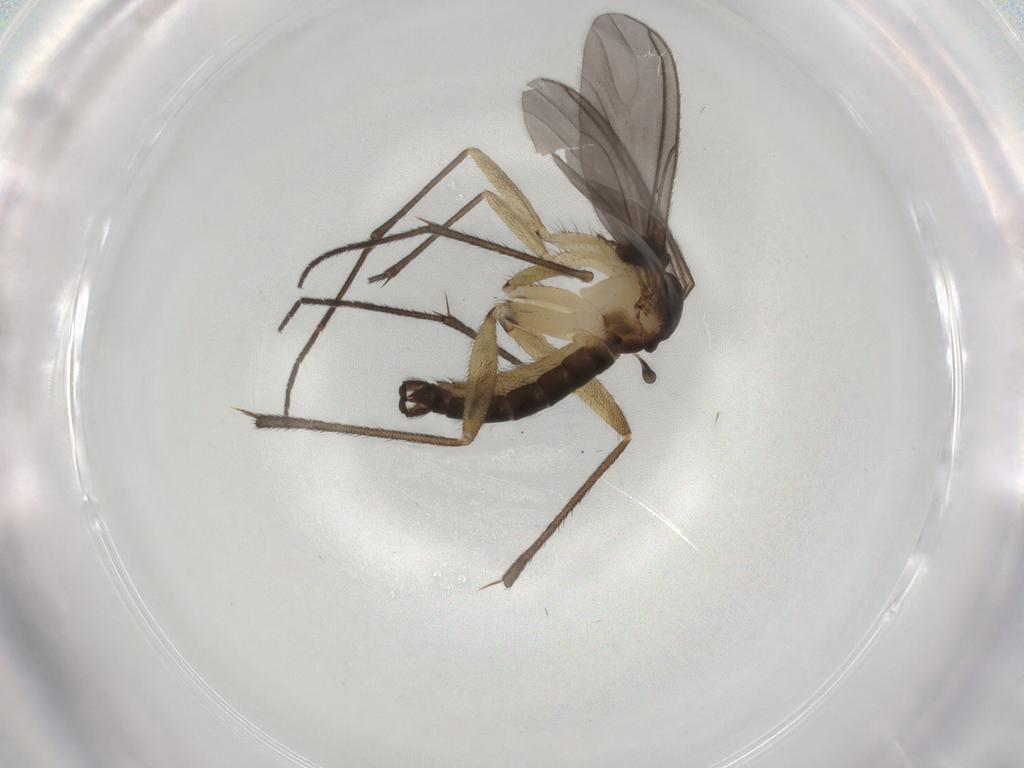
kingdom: Animalia
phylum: Arthropoda
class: Insecta
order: Diptera
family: Sciaridae
